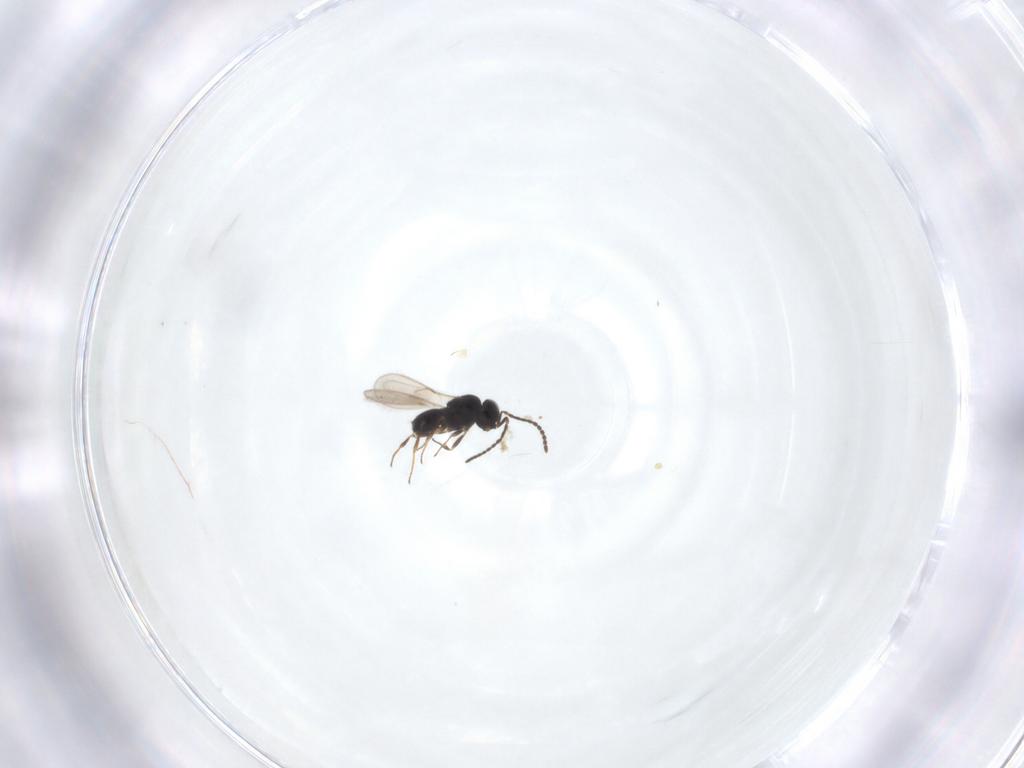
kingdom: Animalia
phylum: Arthropoda
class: Insecta
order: Hymenoptera
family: Scelionidae
